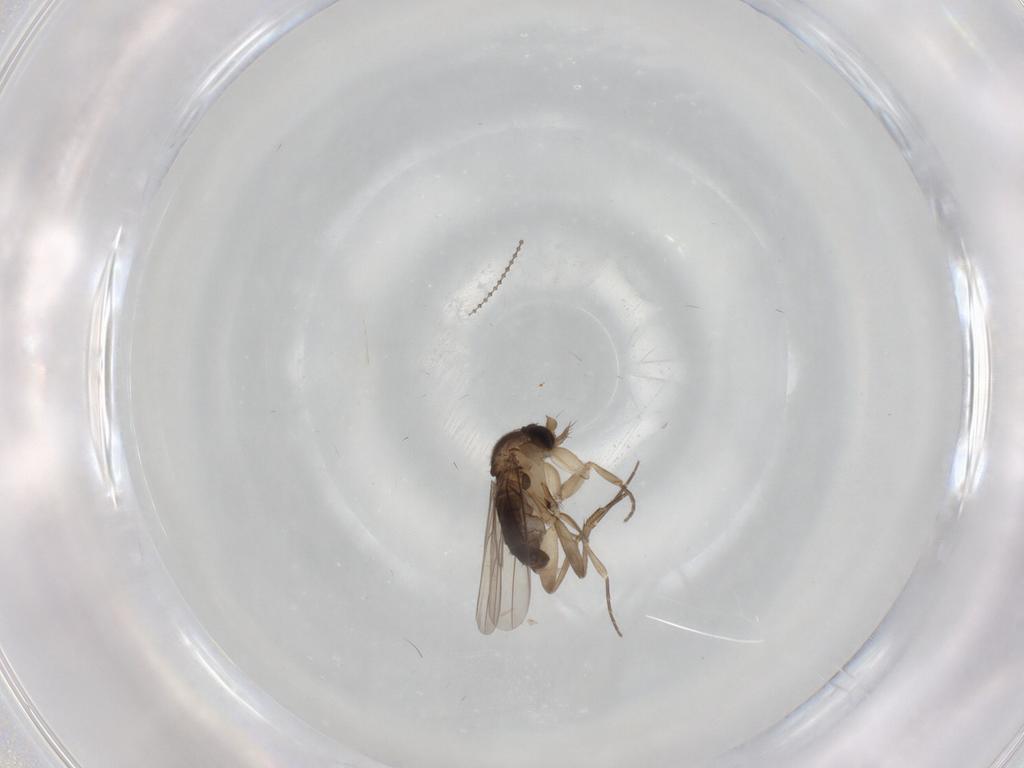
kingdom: Animalia
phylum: Arthropoda
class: Insecta
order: Diptera
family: Phoridae
